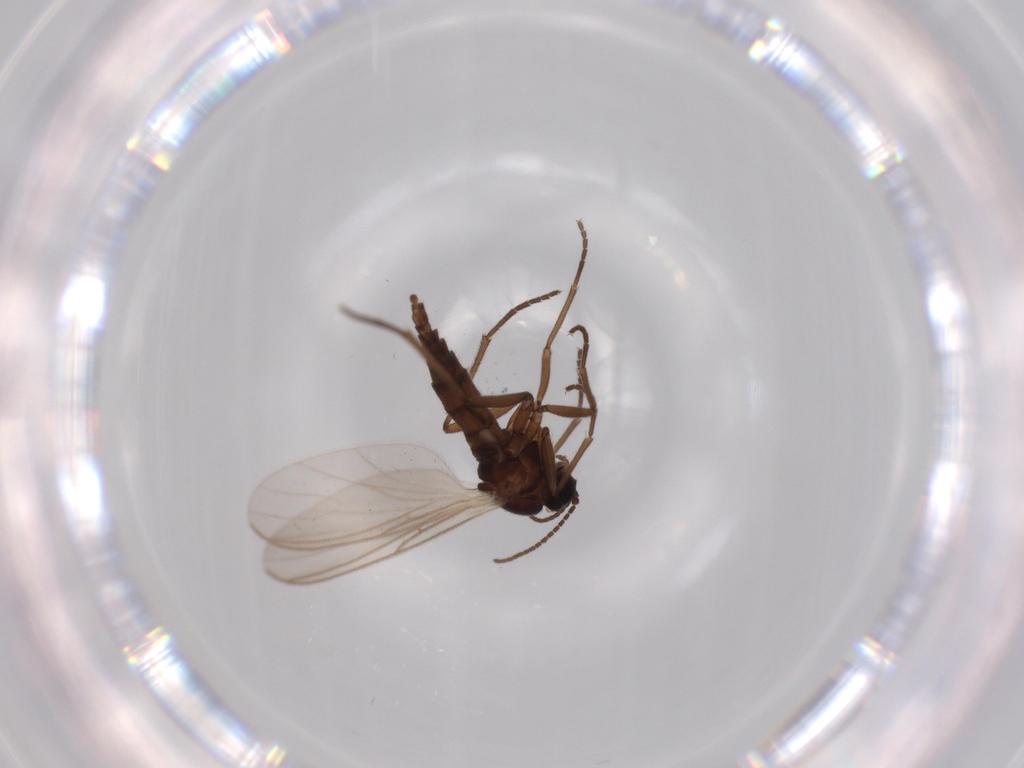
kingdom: Animalia
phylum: Arthropoda
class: Insecta
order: Diptera
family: Sciaridae
